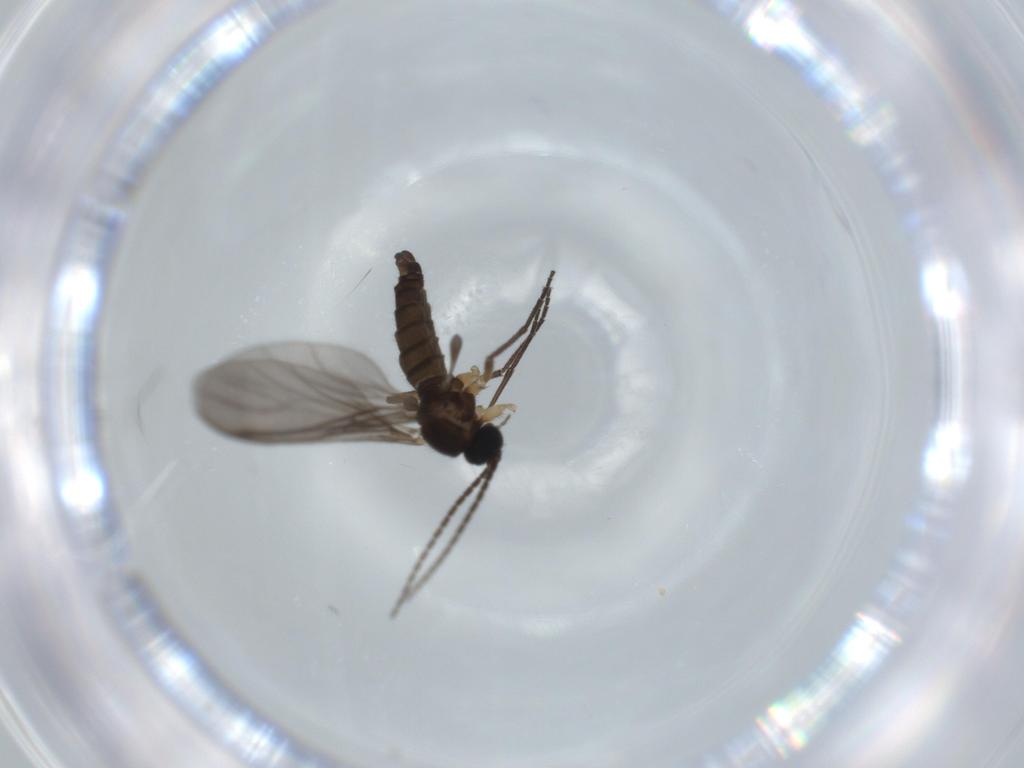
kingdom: Animalia
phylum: Arthropoda
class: Insecta
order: Diptera
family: Sciaridae
